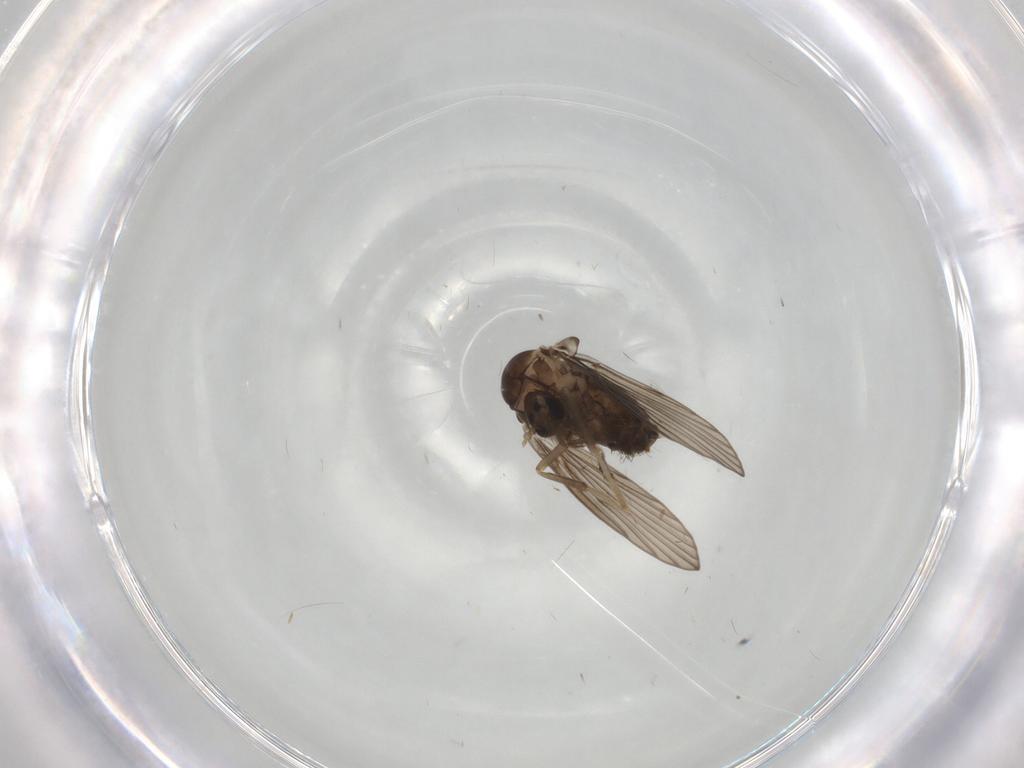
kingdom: Animalia
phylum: Arthropoda
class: Insecta
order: Diptera
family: Psychodidae
